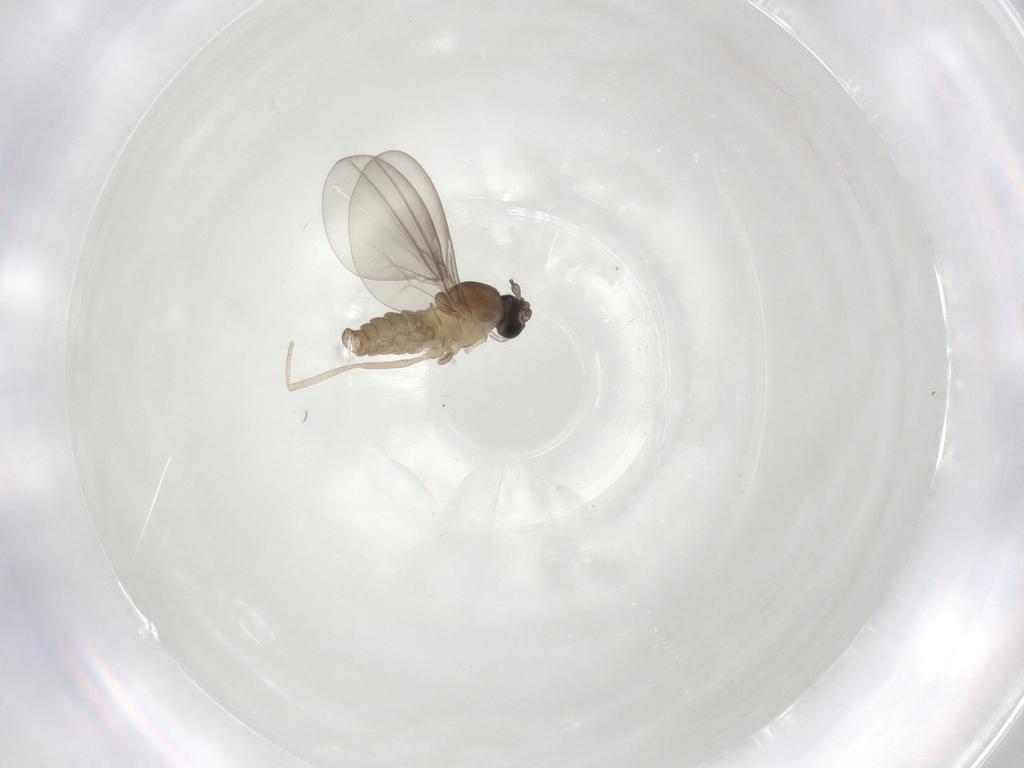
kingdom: Animalia
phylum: Arthropoda
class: Insecta
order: Diptera
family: Cecidomyiidae
